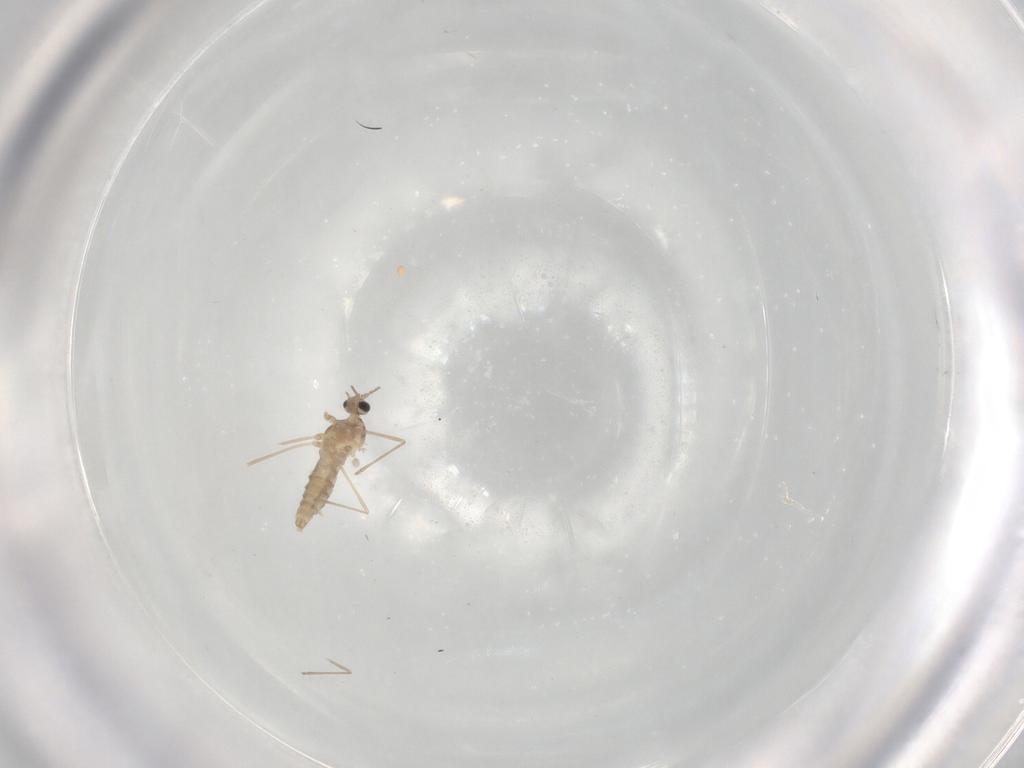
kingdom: Animalia
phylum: Arthropoda
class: Insecta
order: Diptera
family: Cecidomyiidae
